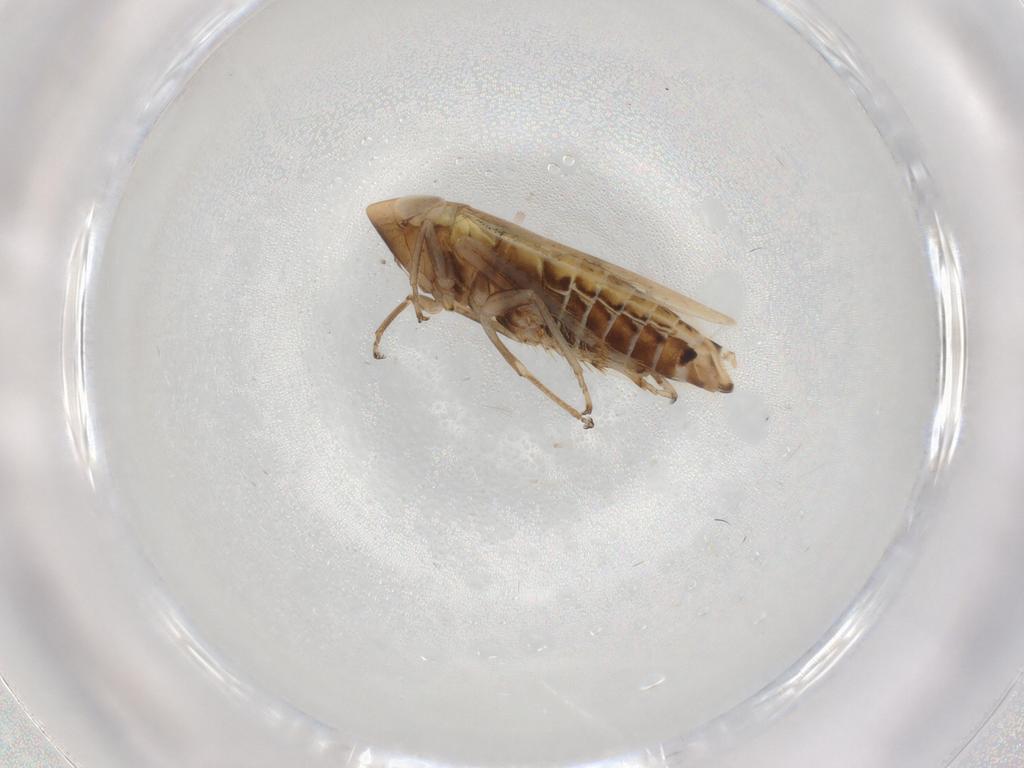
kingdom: Animalia
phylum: Arthropoda
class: Insecta
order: Hemiptera
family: Cicadellidae
